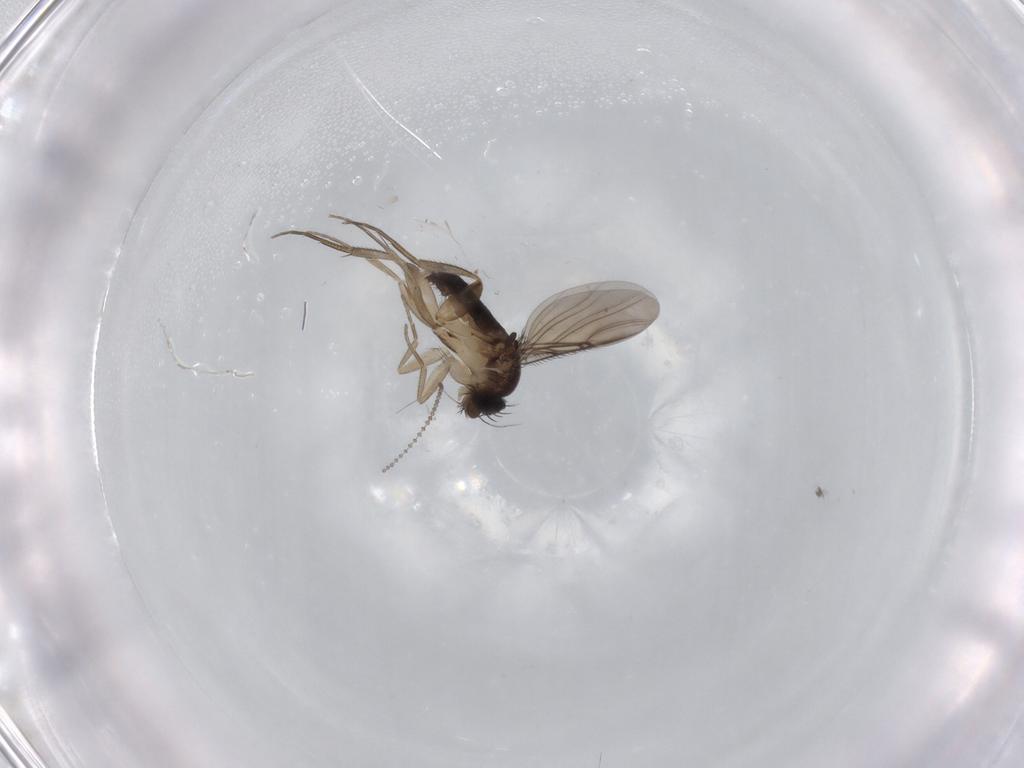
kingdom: Animalia
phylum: Arthropoda
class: Insecta
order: Diptera
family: Phoridae
